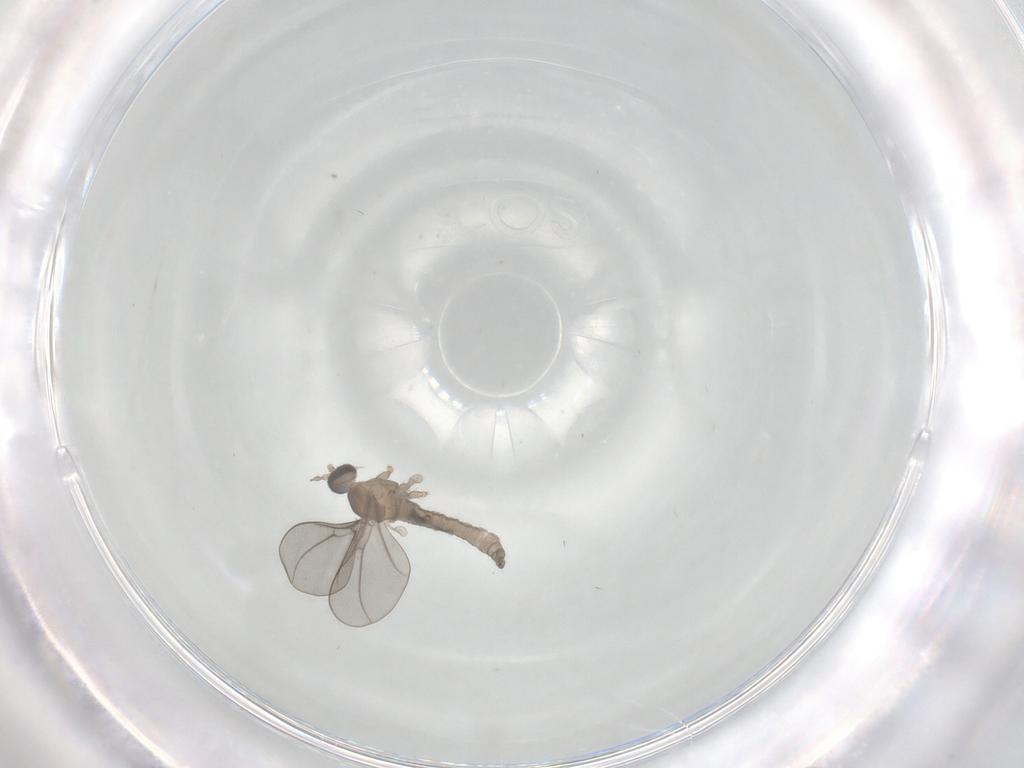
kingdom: Animalia
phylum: Arthropoda
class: Insecta
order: Diptera
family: Cecidomyiidae
